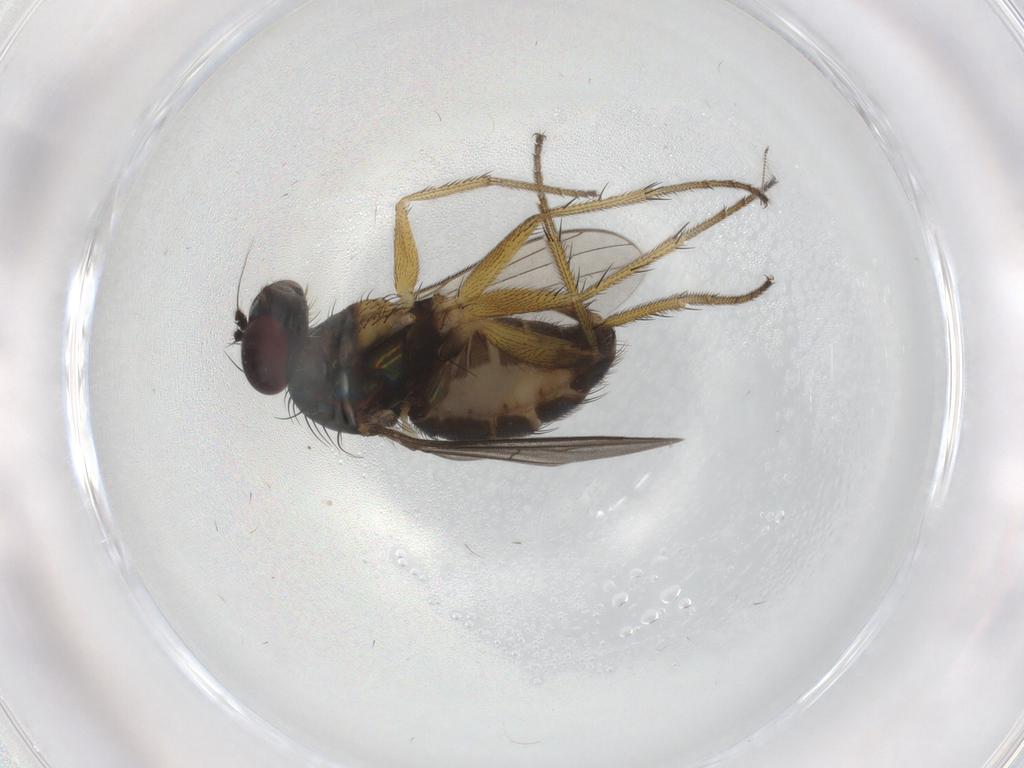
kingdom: Animalia
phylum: Arthropoda
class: Insecta
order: Diptera
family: Dolichopodidae
